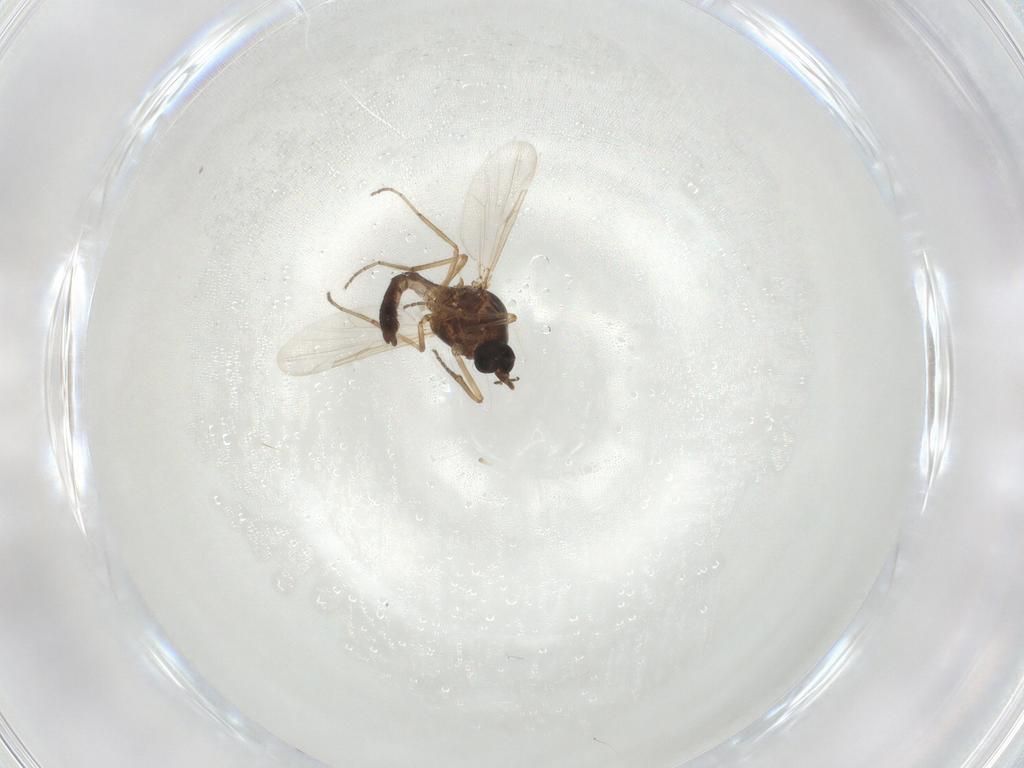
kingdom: Animalia
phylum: Arthropoda
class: Insecta
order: Diptera
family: Ceratopogonidae
